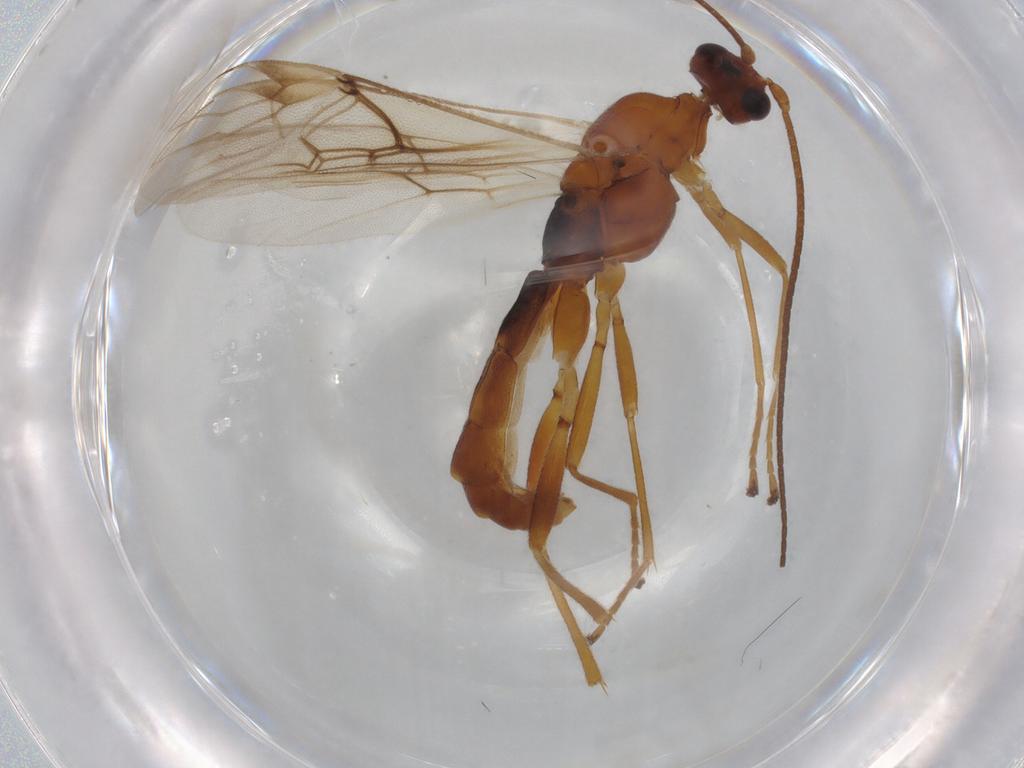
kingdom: Animalia
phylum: Arthropoda
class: Insecta
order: Hymenoptera
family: Braconidae
